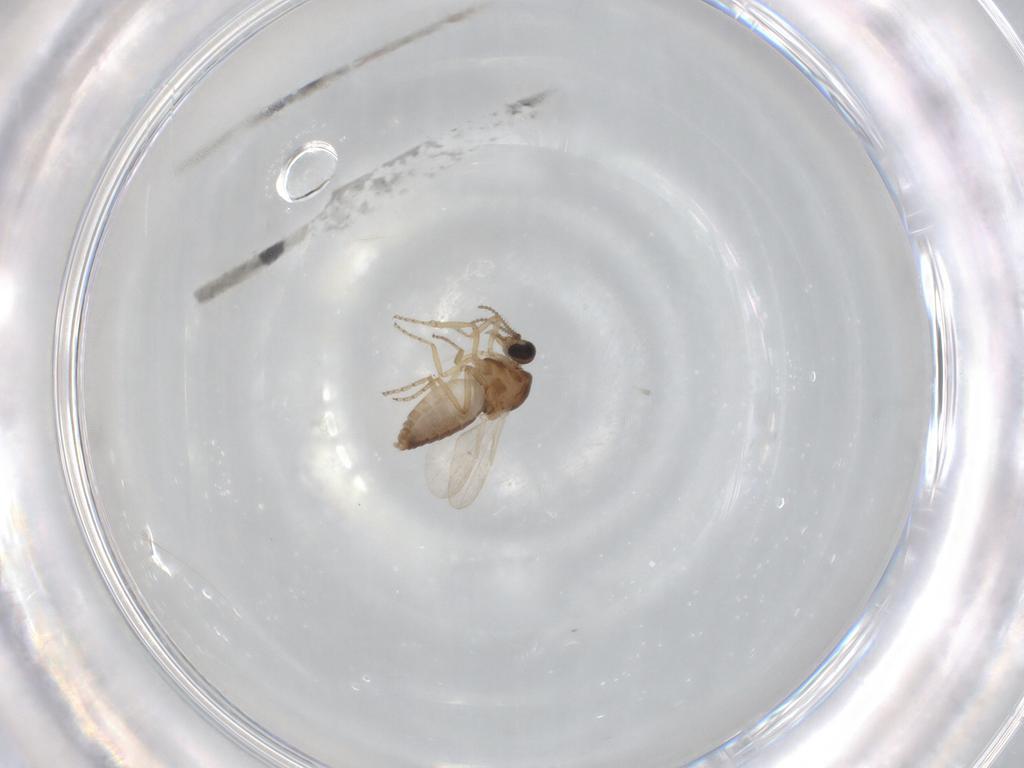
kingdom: Animalia
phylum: Arthropoda
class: Insecta
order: Diptera
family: Ceratopogonidae
